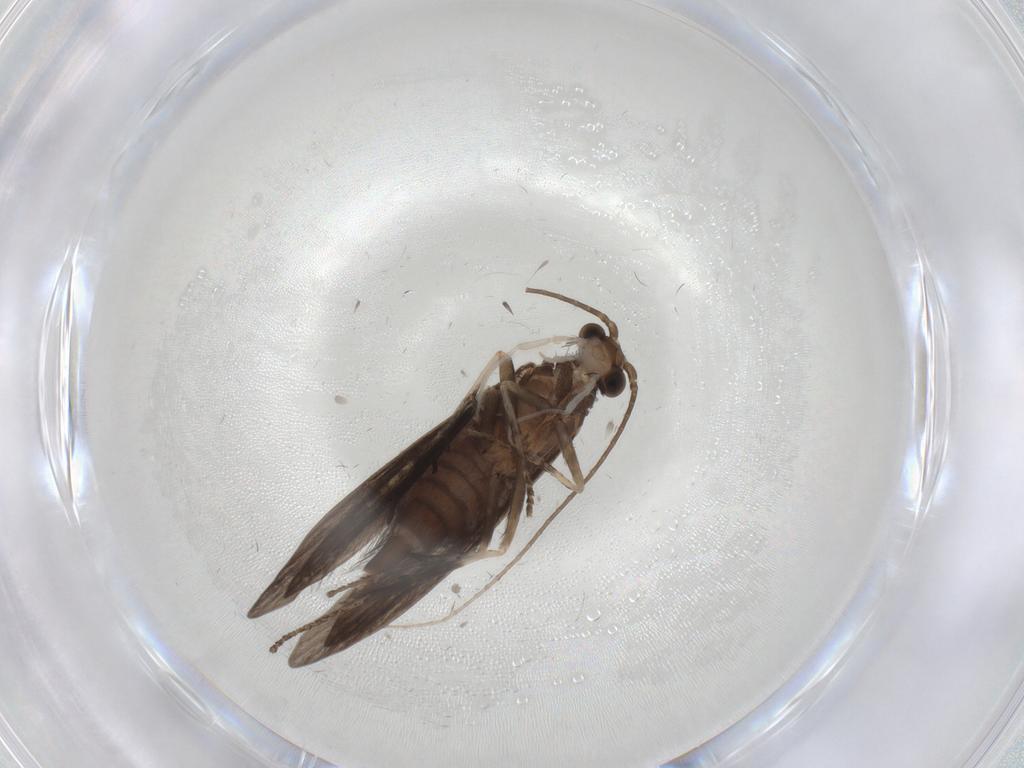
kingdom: Animalia
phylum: Arthropoda
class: Insecta
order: Trichoptera
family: Xiphocentronidae
